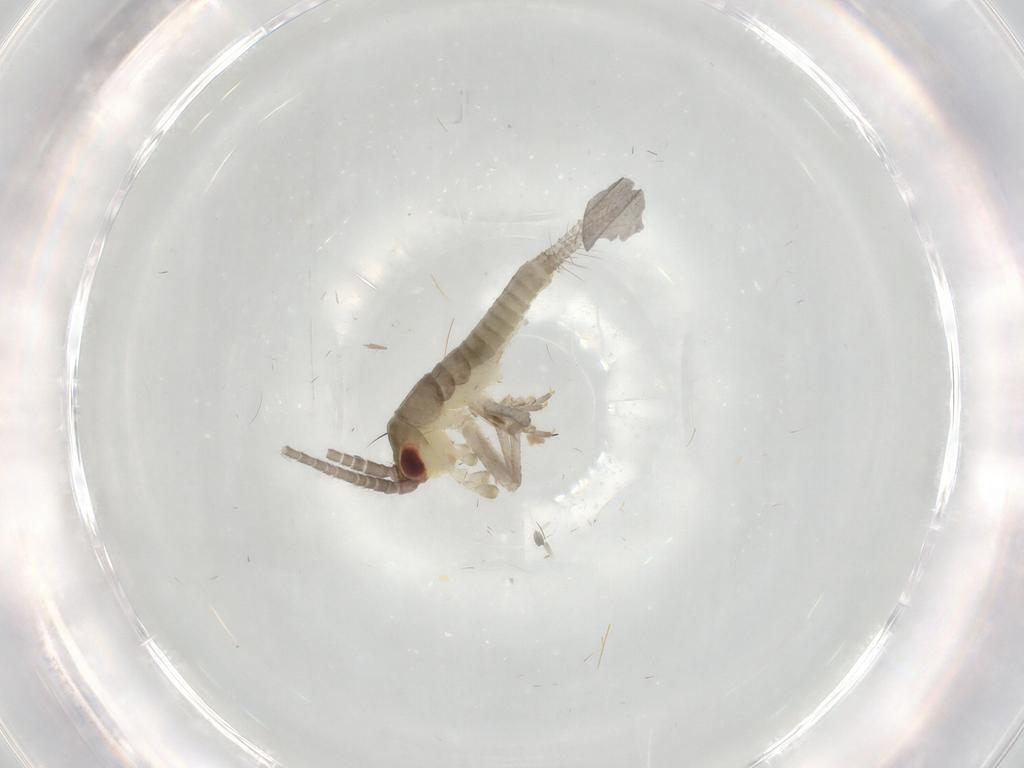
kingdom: Animalia
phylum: Arthropoda
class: Insecta
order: Orthoptera
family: Gryllidae
